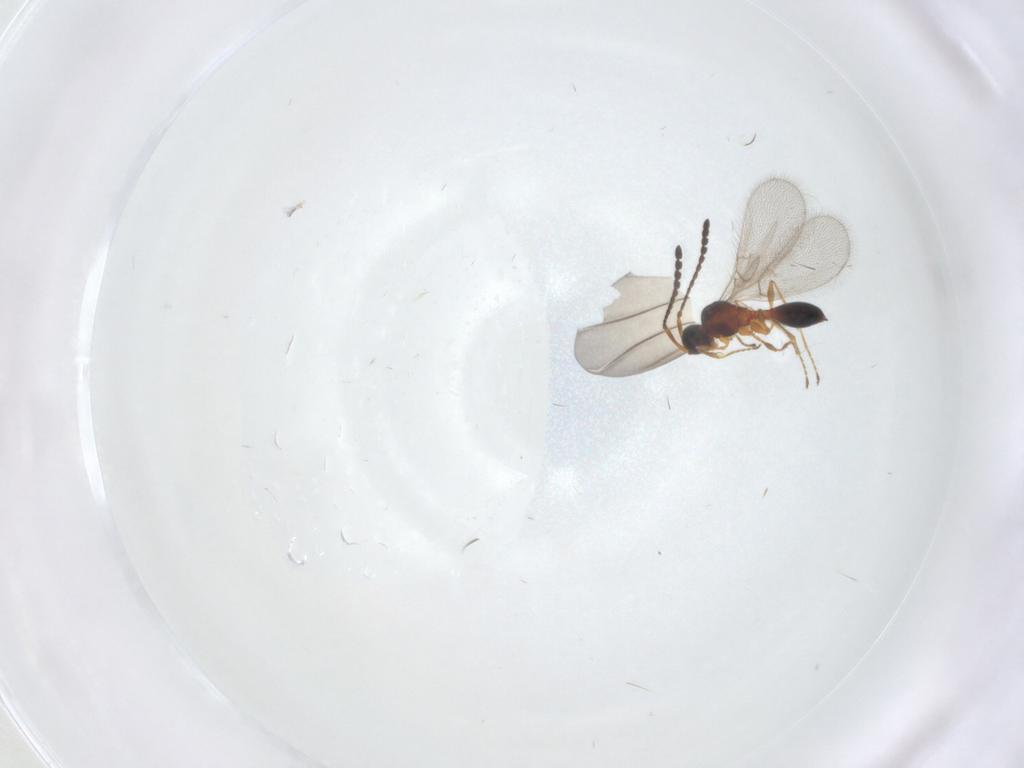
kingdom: Animalia
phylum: Arthropoda
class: Insecta
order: Hymenoptera
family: Diapriidae
